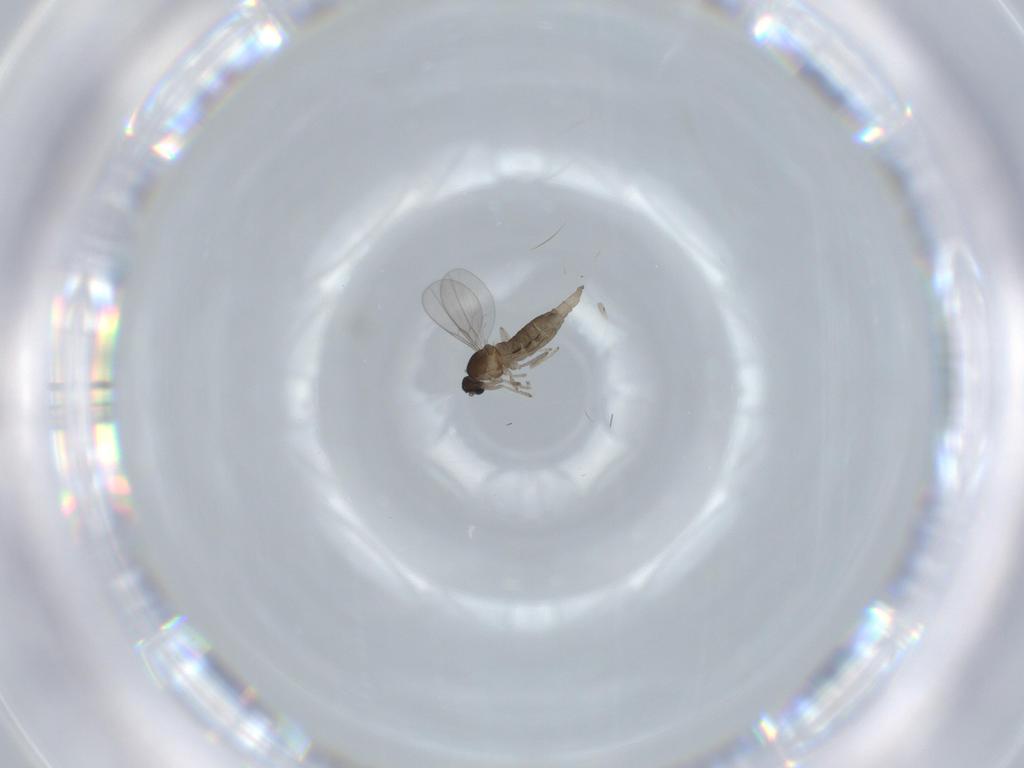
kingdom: Animalia
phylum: Arthropoda
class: Insecta
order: Diptera
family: Cecidomyiidae
